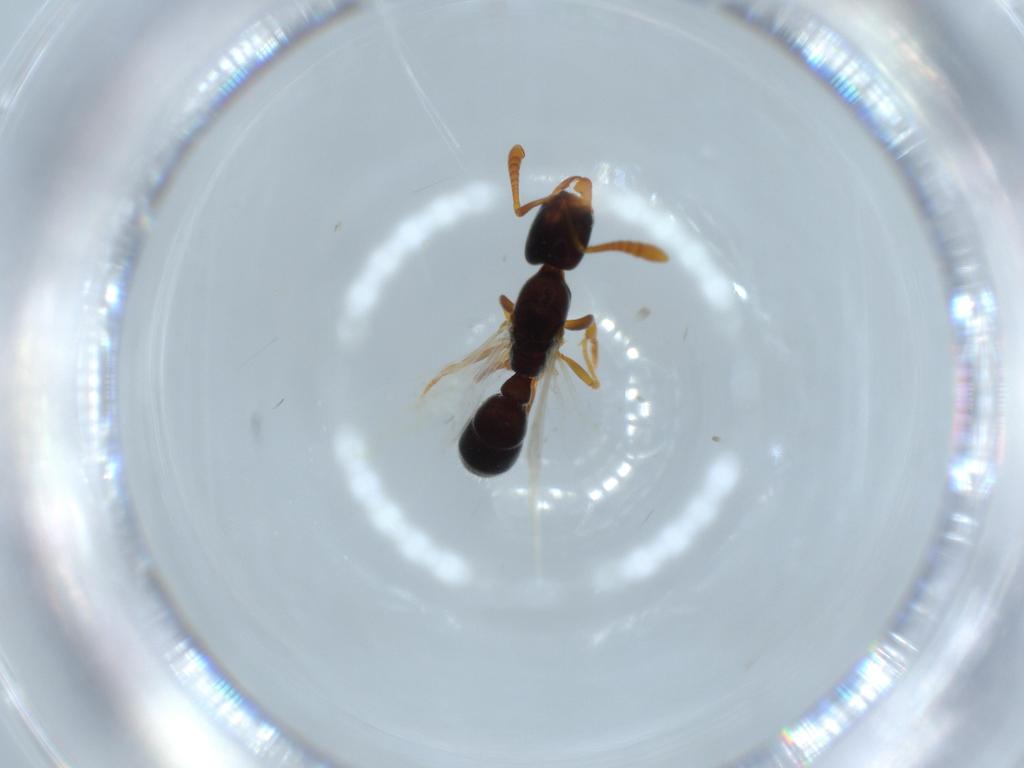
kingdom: Animalia
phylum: Arthropoda
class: Insecta
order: Hymenoptera
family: Formicidae
